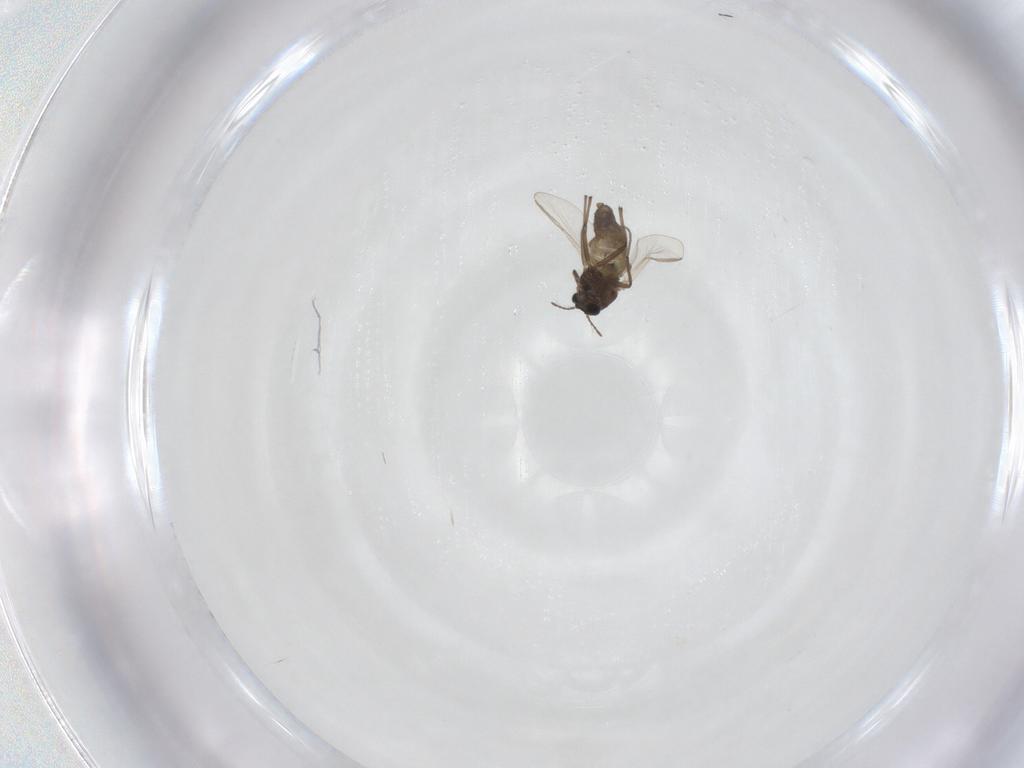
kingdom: Animalia
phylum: Arthropoda
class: Insecta
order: Diptera
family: Chironomidae
